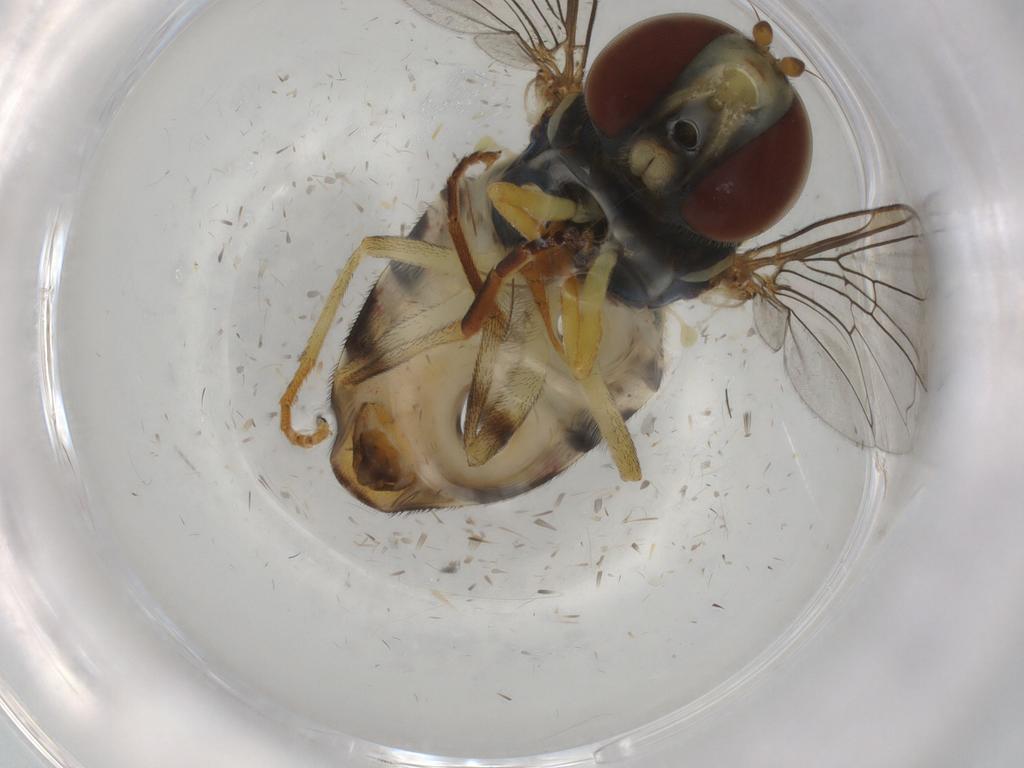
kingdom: Animalia
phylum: Arthropoda
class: Insecta
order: Diptera
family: Syrphidae
